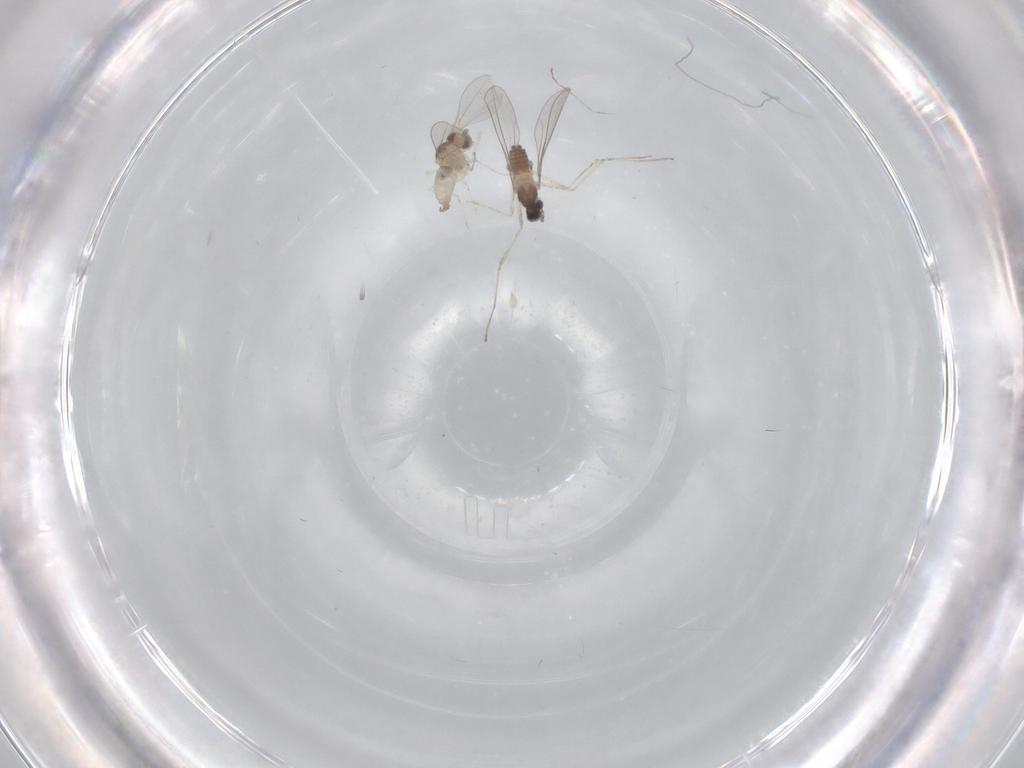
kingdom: Animalia
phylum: Arthropoda
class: Insecta
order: Diptera
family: Cecidomyiidae
